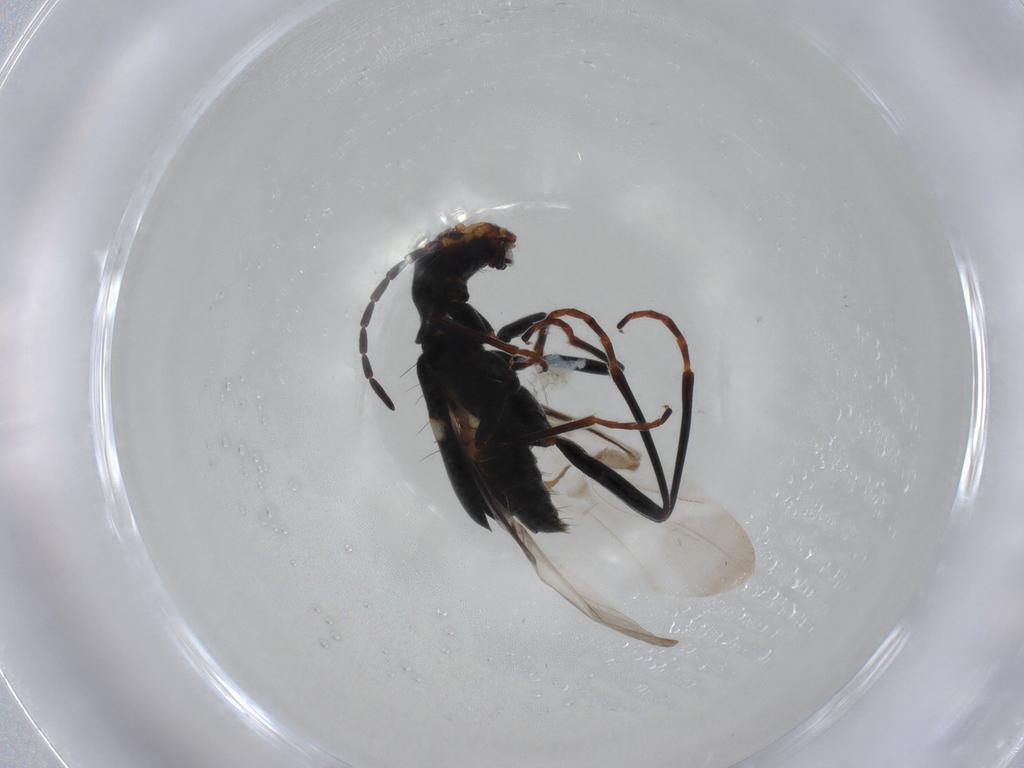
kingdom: Animalia
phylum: Arthropoda
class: Insecta
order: Coleoptera
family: Melyridae
